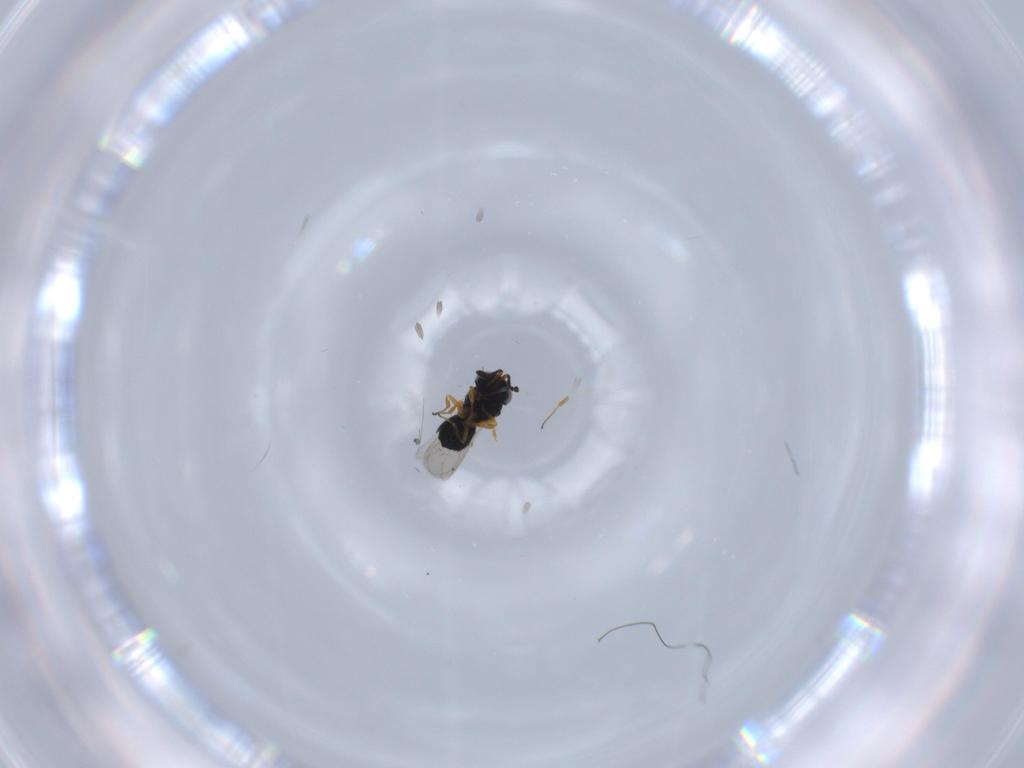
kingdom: Animalia
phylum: Arthropoda
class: Insecta
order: Hymenoptera
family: Scelionidae
